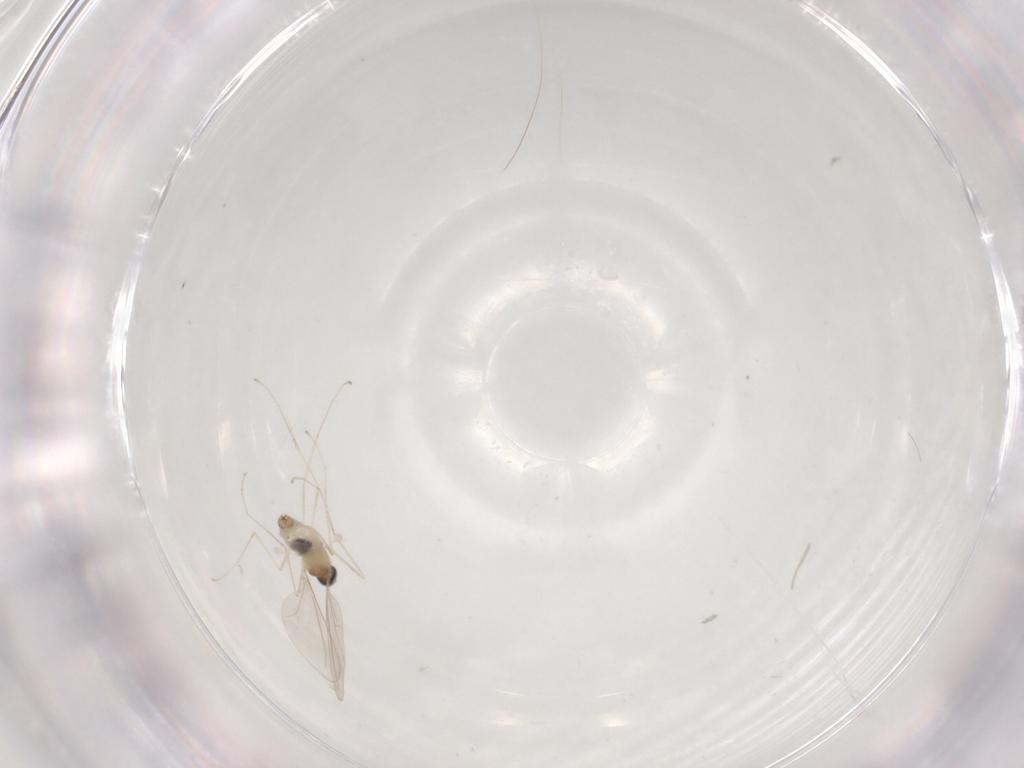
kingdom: Animalia
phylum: Arthropoda
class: Insecta
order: Diptera
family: Cecidomyiidae
